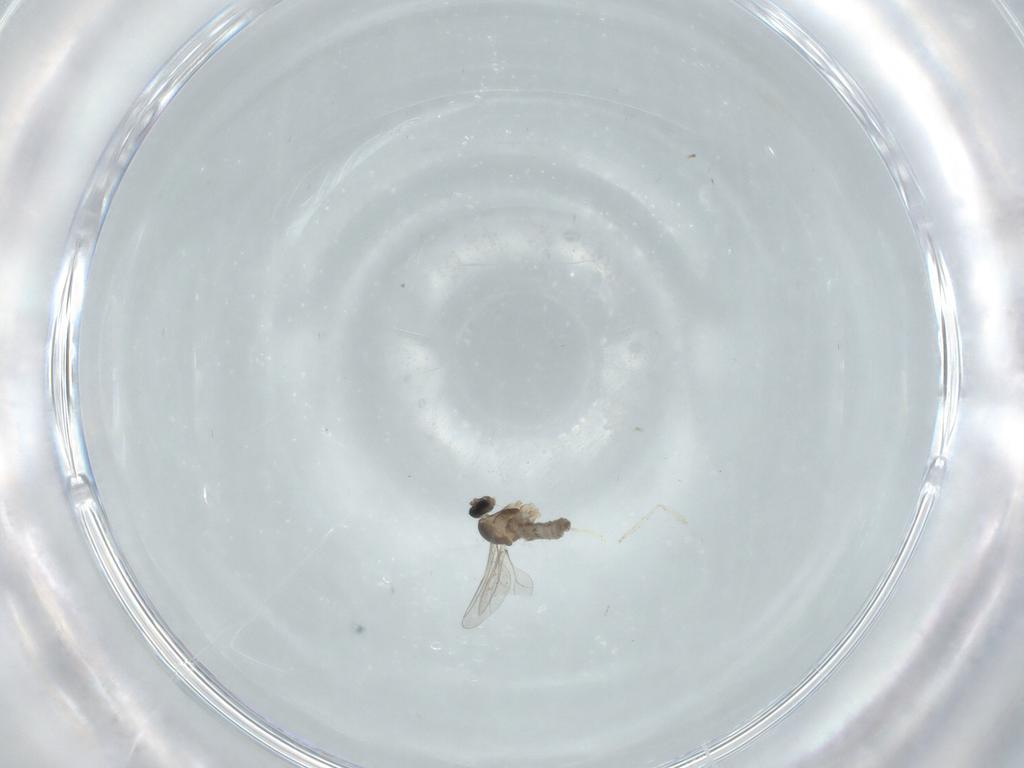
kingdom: Animalia
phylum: Arthropoda
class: Insecta
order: Diptera
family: Cecidomyiidae
